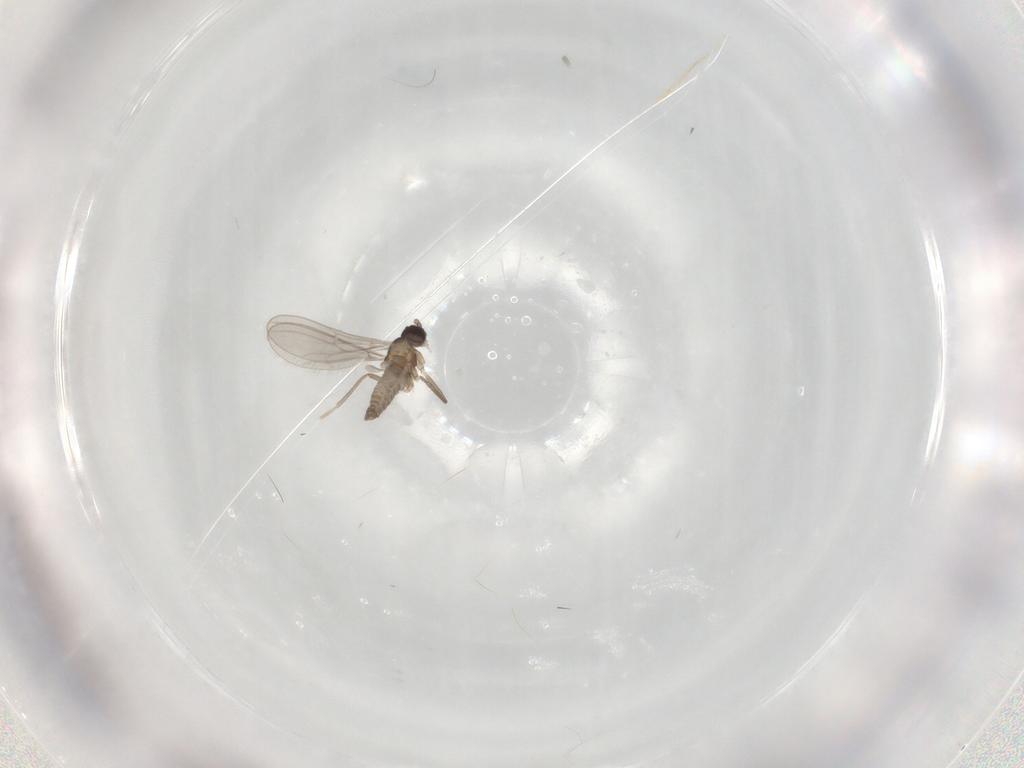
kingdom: Animalia
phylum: Arthropoda
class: Insecta
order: Diptera
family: Cecidomyiidae
